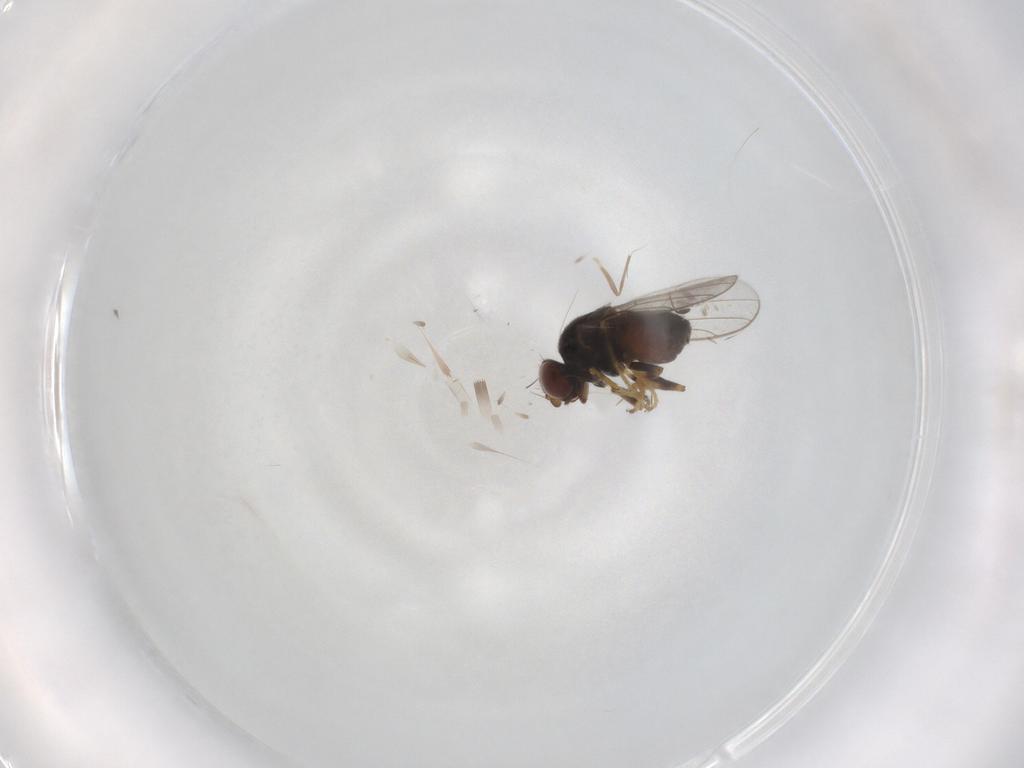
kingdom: Animalia
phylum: Arthropoda
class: Insecta
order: Diptera
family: Chloropidae
